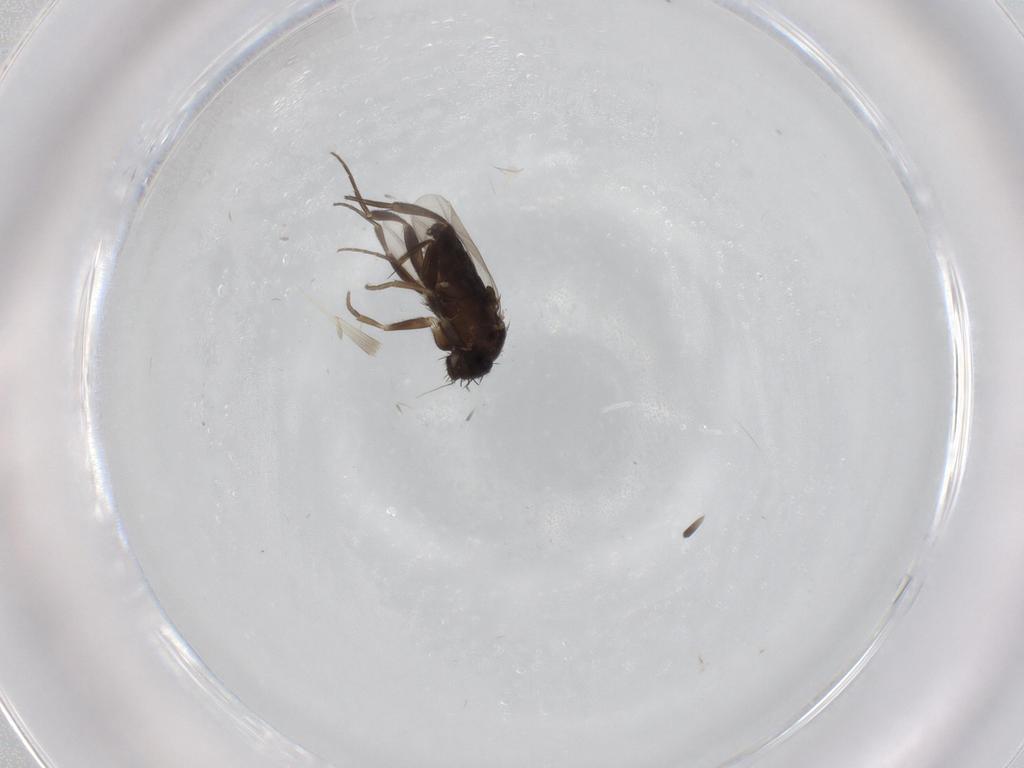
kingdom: Animalia
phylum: Arthropoda
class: Insecta
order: Diptera
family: Phoridae
